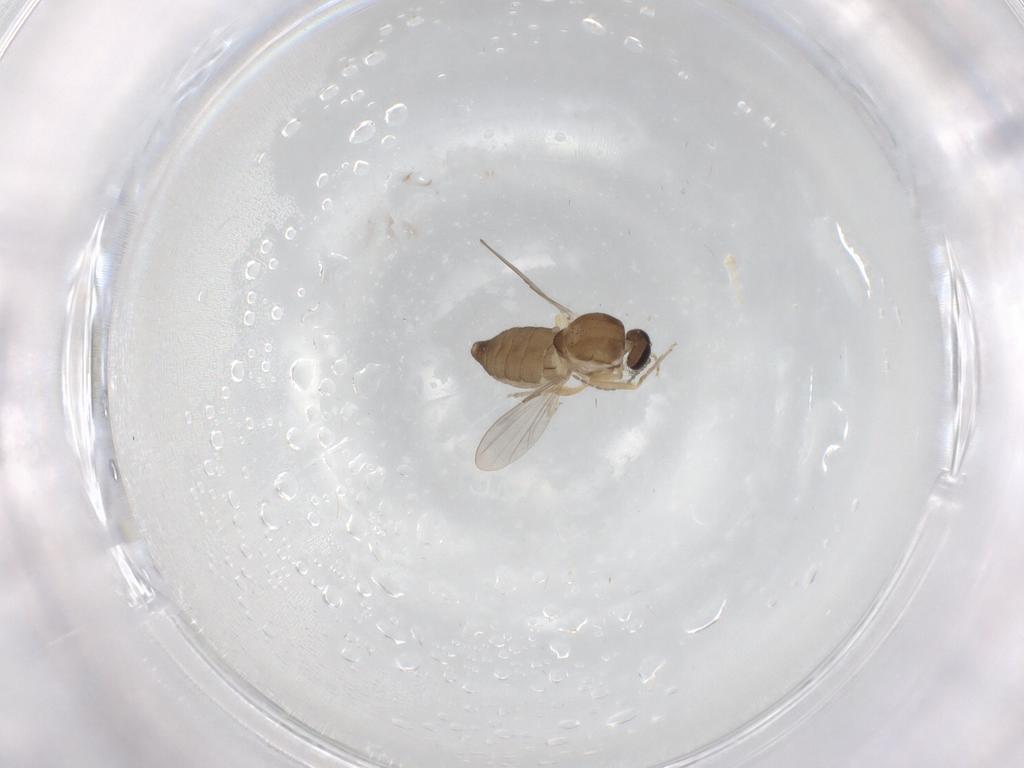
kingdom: Animalia
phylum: Arthropoda
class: Insecta
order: Diptera
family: Ceratopogonidae
